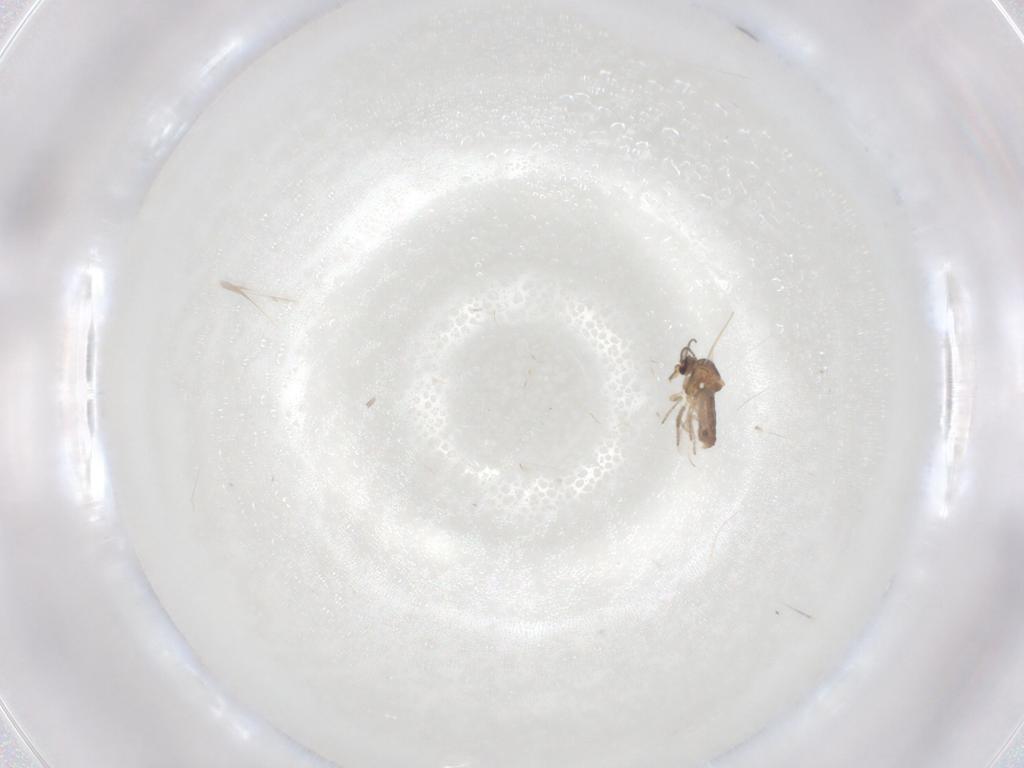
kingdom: Animalia
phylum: Arthropoda
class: Insecta
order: Diptera
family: Ceratopogonidae
